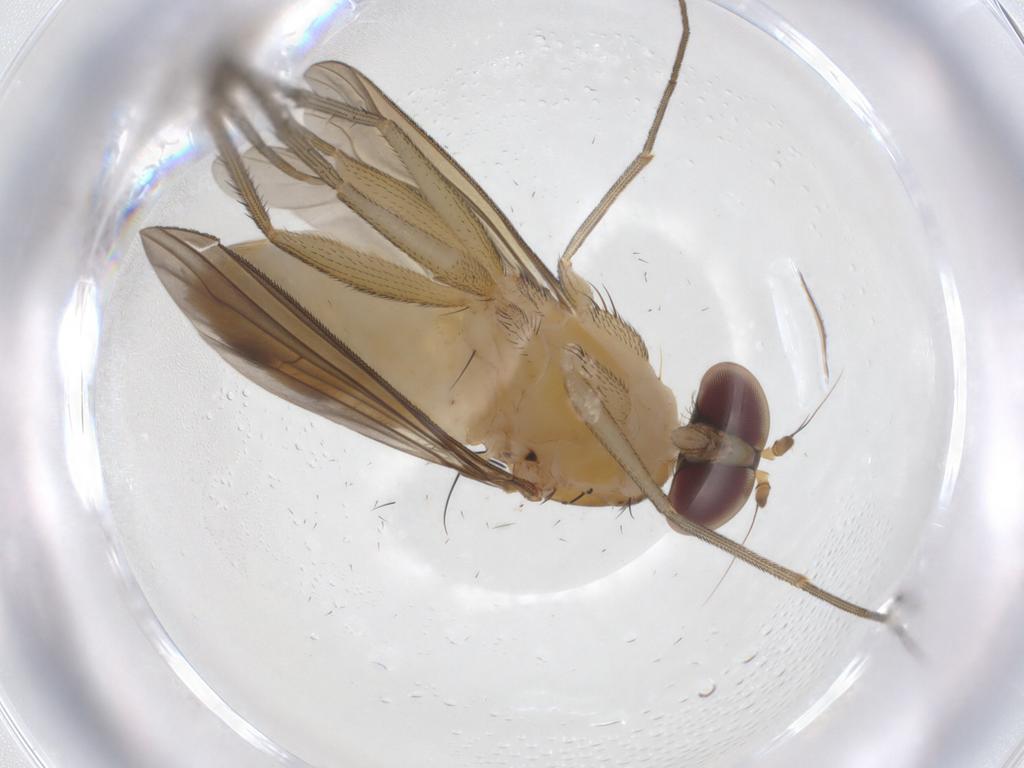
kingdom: Animalia
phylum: Arthropoda
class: Insecta
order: Diptera
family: Dolichopodidae
